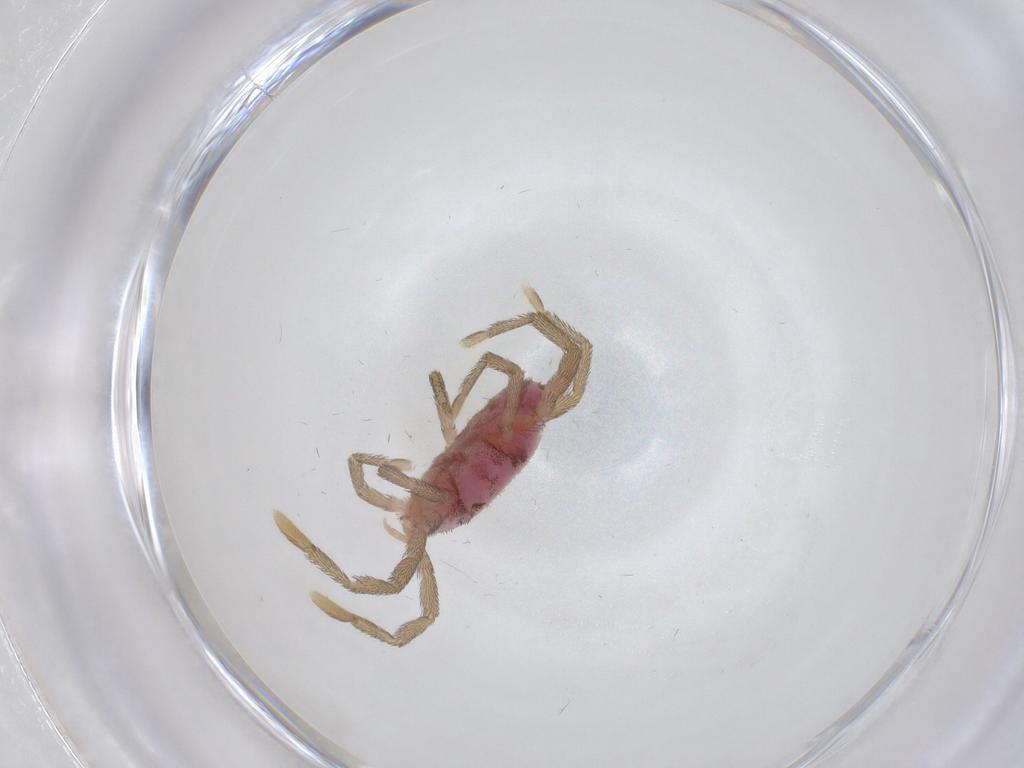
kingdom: Animalia
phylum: Arthropoda
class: Arachnida
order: Trombidiformes
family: Erythraeidae
